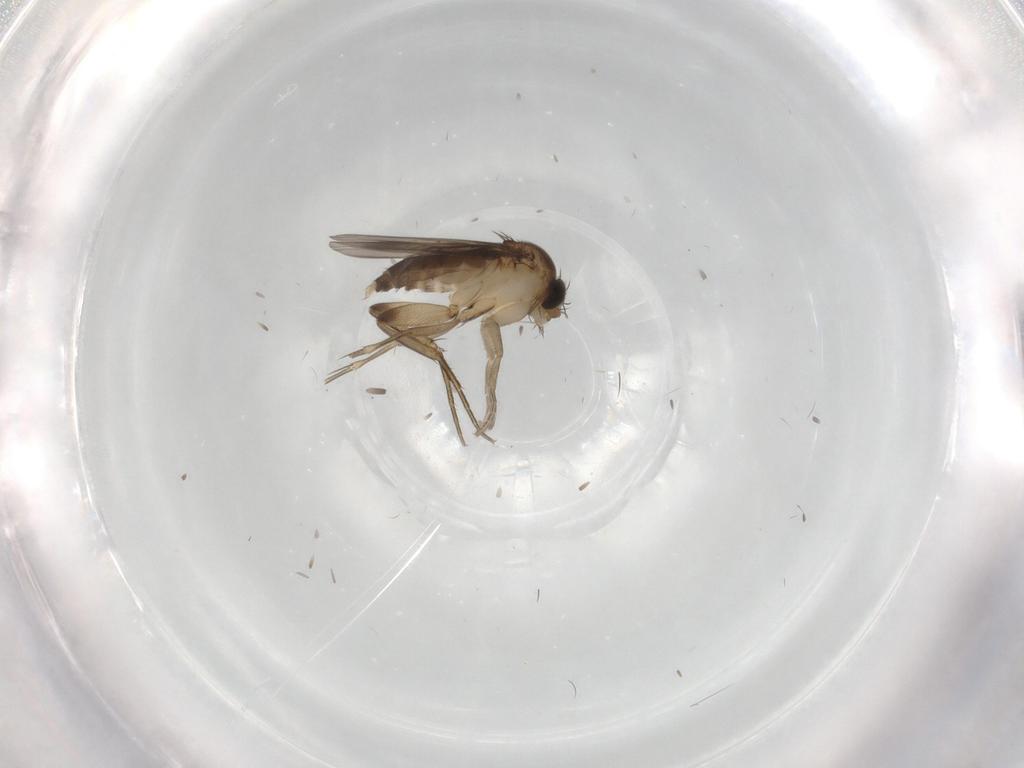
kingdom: Animalia
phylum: Arthropoda
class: Insecta
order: Diptera
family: Phoridae
